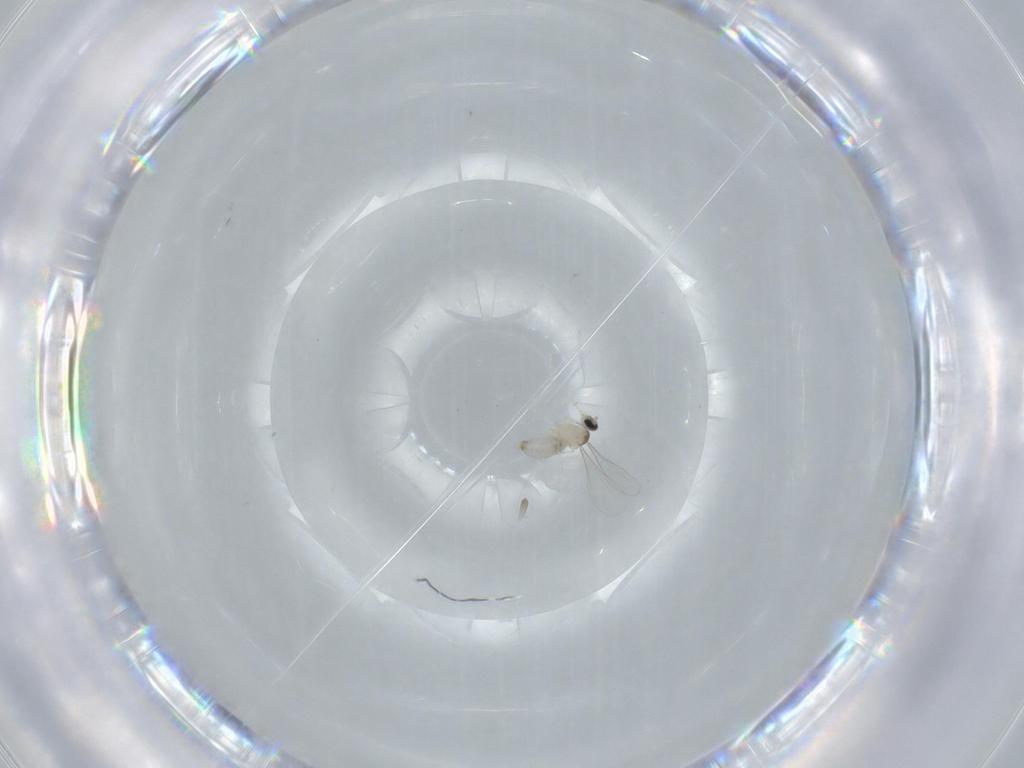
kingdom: Animalia
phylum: Arthropoda
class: Insecta
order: Diptera
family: Cecidomyiidae
